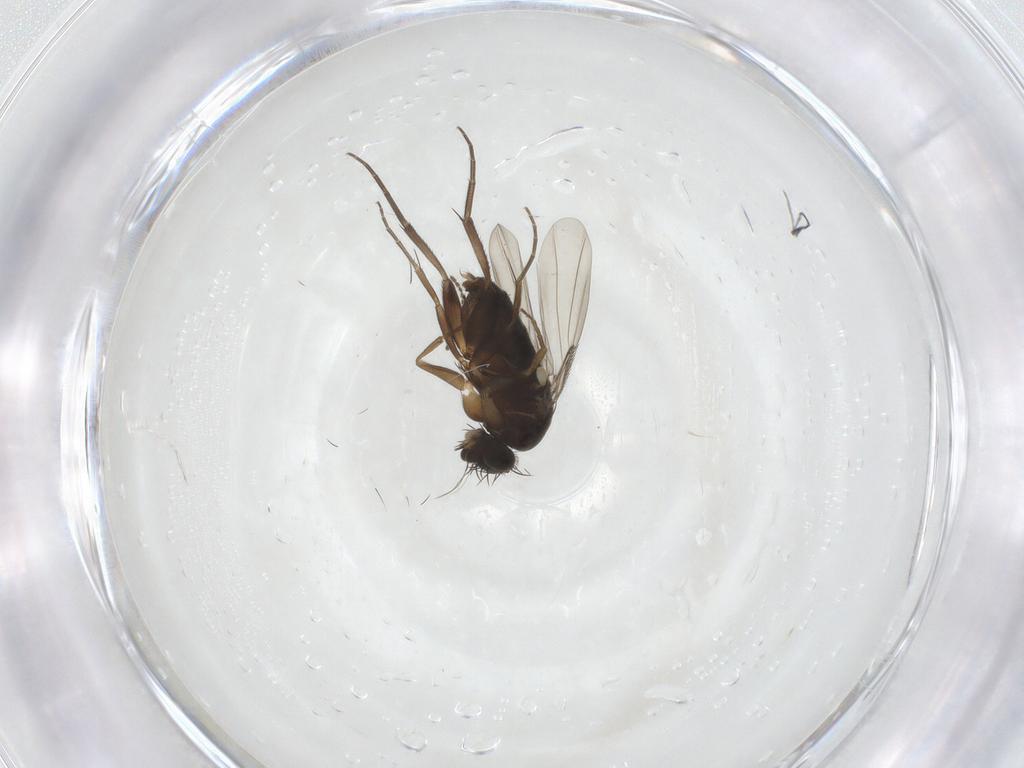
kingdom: Animalia
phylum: Arthropoda
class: Insecta
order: Diptera
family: Phoridae
